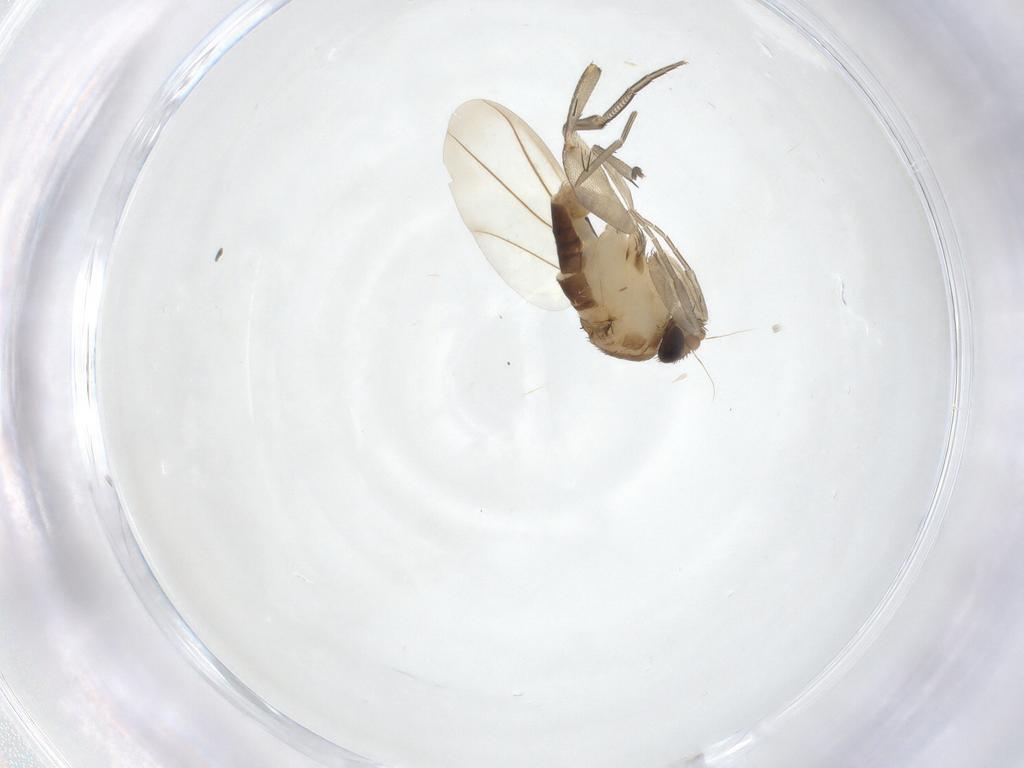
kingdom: Animalia
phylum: Arthropoda
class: Insecta
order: Diptera
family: Phoridae
